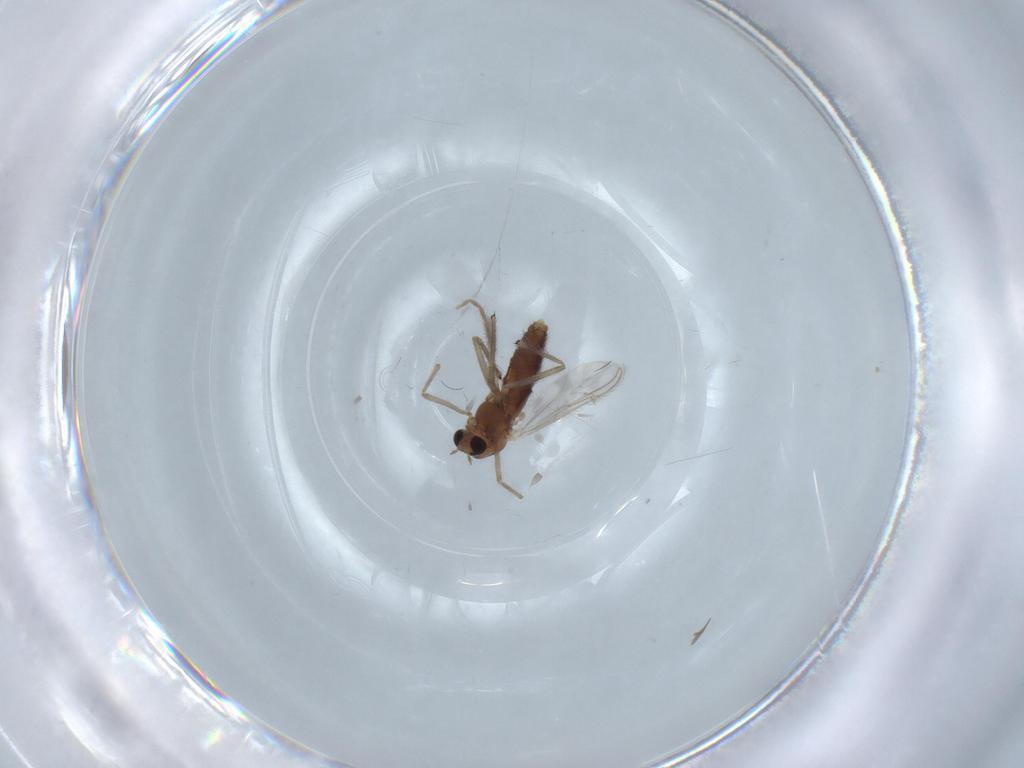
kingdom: Animalia
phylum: Arthropoda
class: Insecta
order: Diptera
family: Chironomidae
